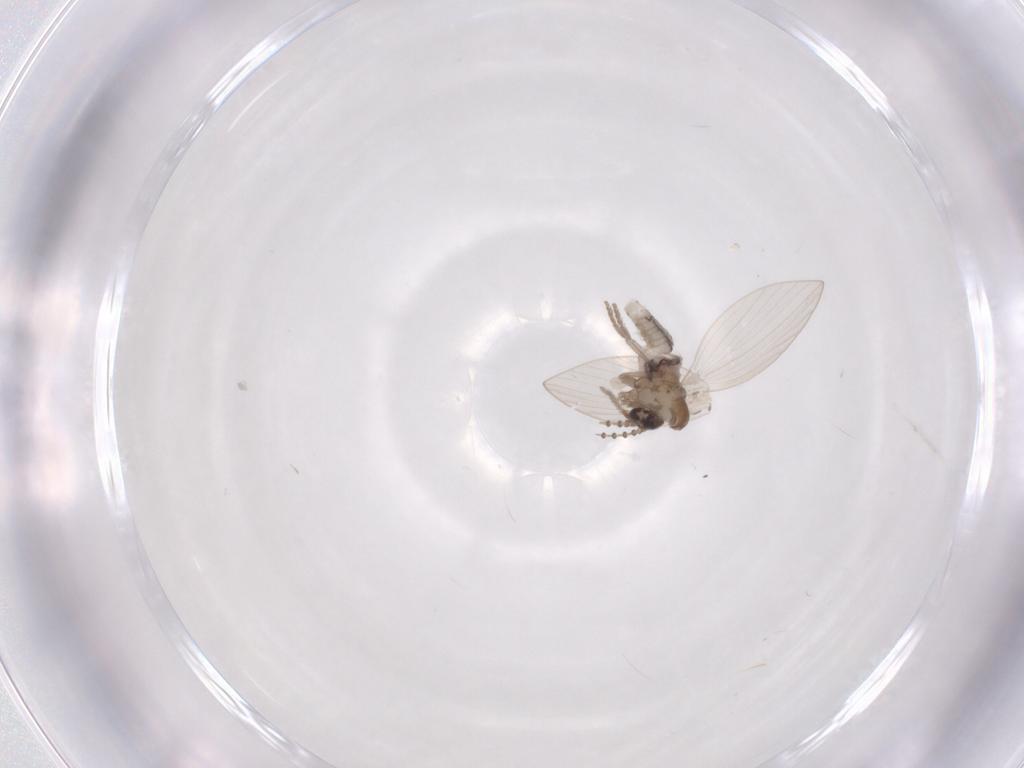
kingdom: Animalia
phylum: Arthropoda
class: Insecta
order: Diptera
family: Psychodidae
